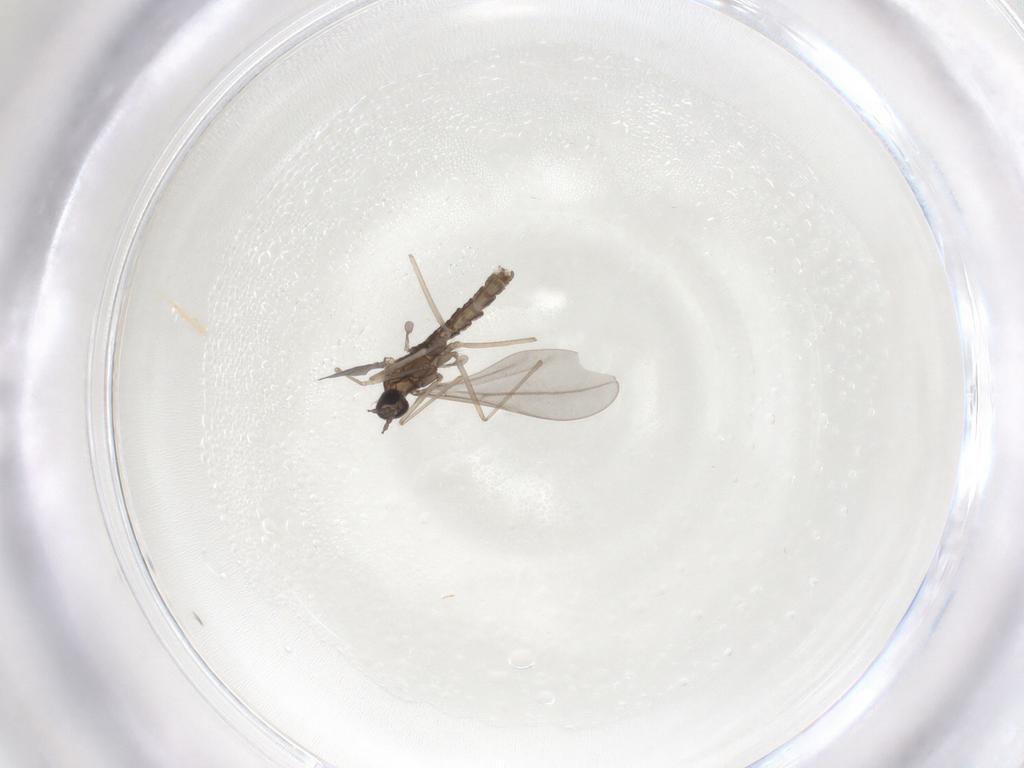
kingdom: Animalia
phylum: Arthropoda
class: Insecta
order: Diptera
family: Cecidomyiidae
